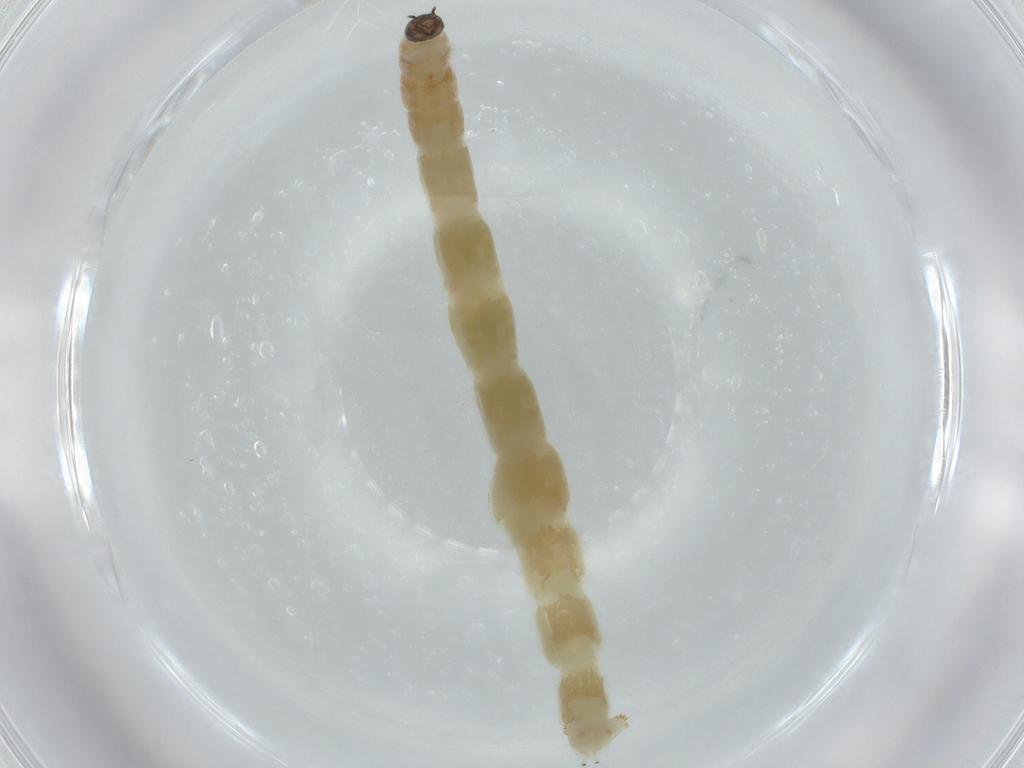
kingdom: Animalia
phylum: Arthropoda
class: Insecta
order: Diptera
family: Chironomidae
